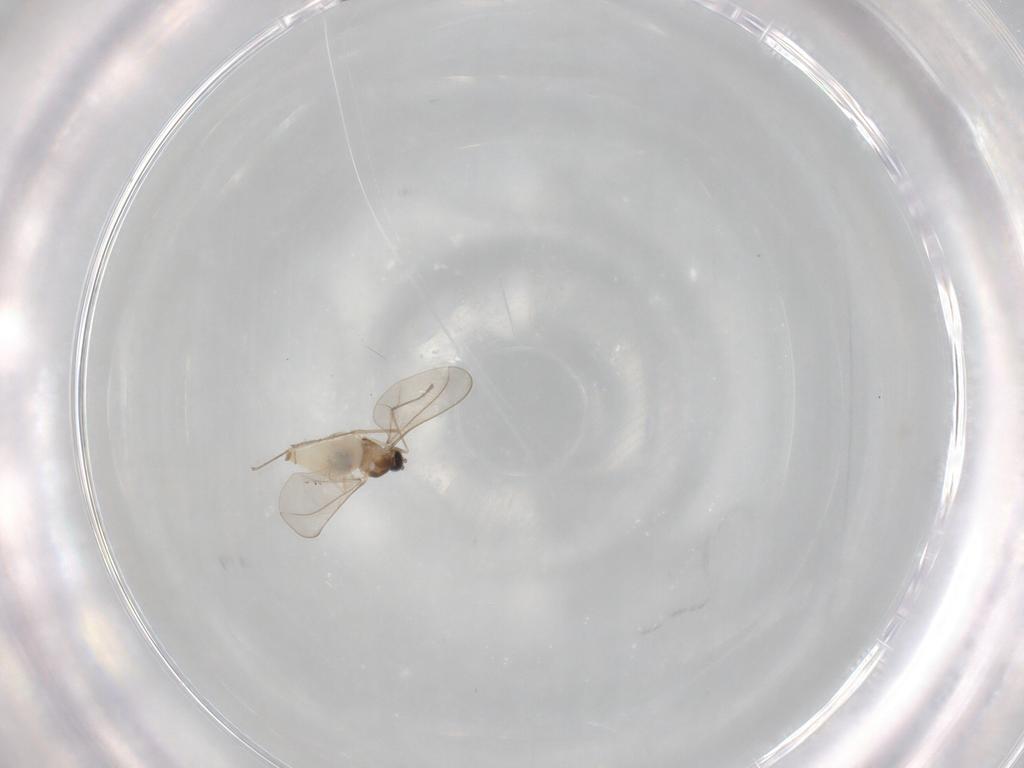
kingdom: Animalia
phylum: Arthropoda
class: Insecta
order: Diptera
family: Cecidomyiidae
